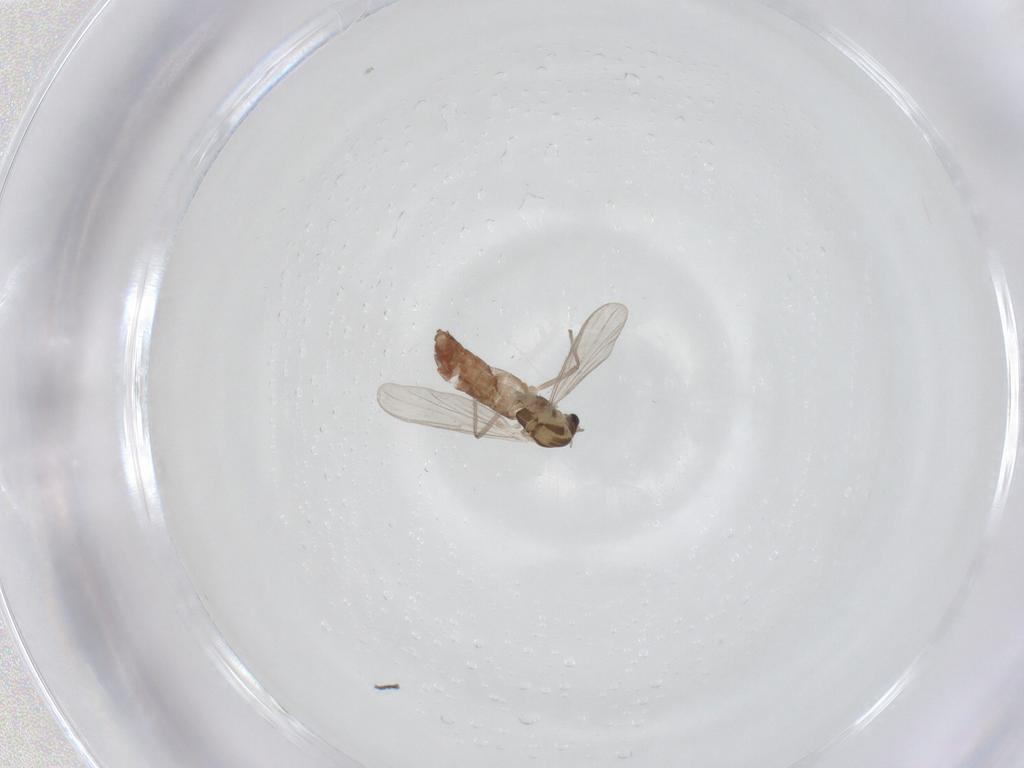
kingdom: Animalia
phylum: Arthropoda
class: Insecta
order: Diptera
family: Chironomidae
